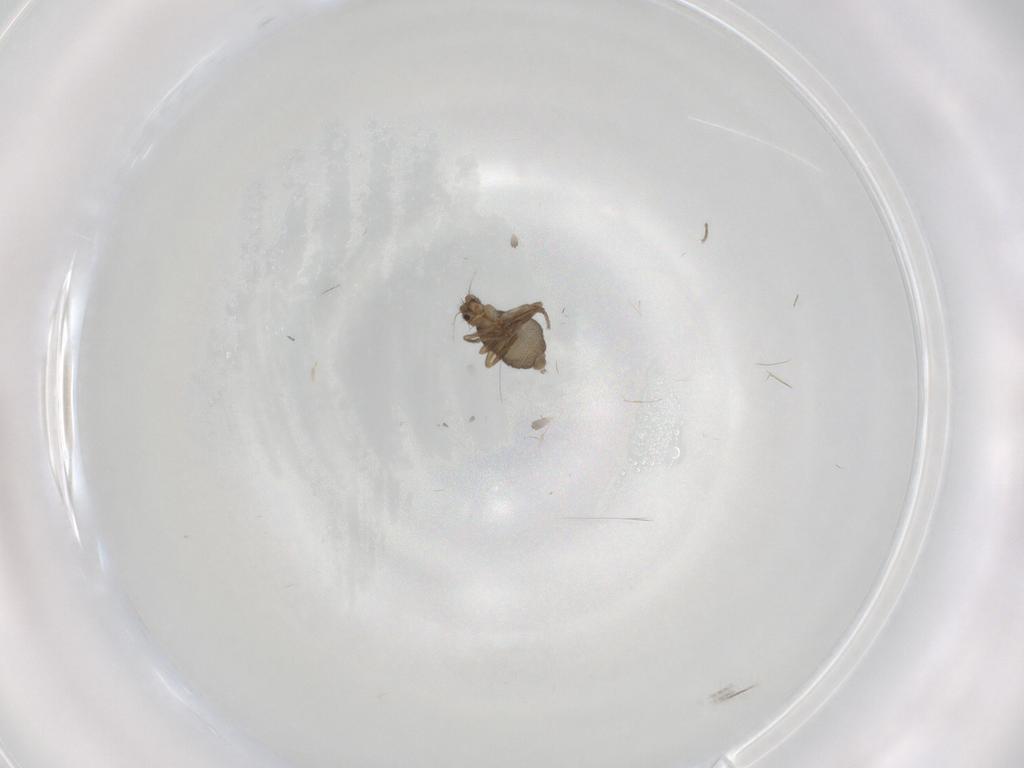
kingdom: Animalia
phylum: Arthropoda
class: Insecta
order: Diptera
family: Chironomidae
